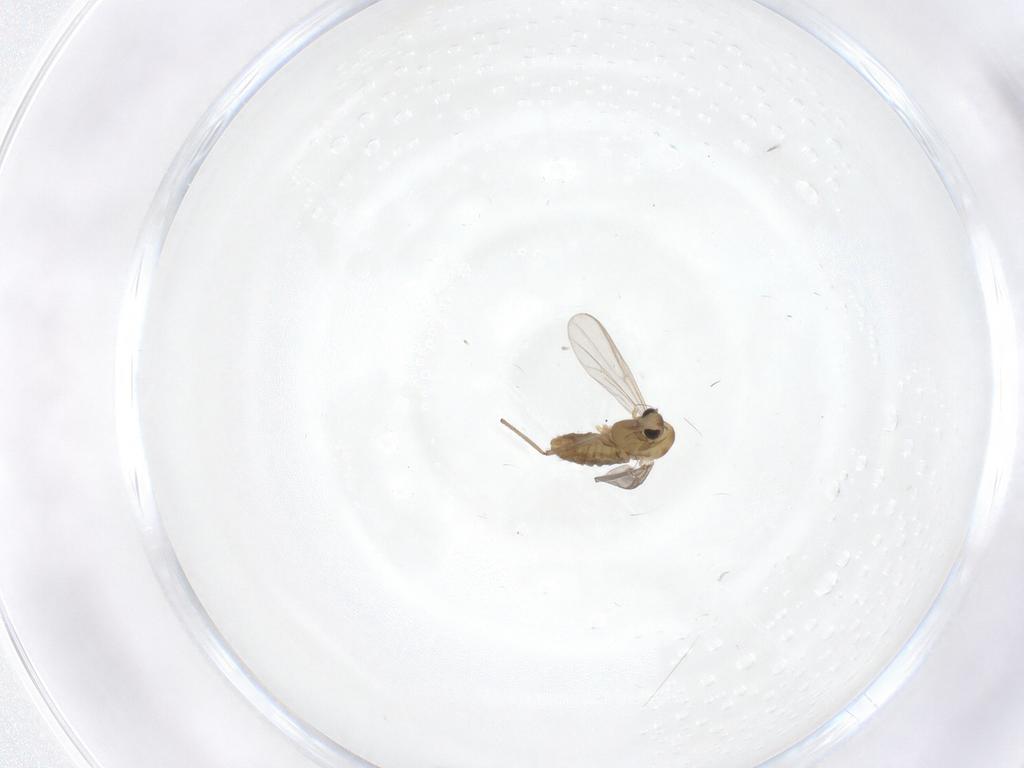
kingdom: Animalia
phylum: Arthropoda
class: Insecta
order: Diptera
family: Chironomidae
